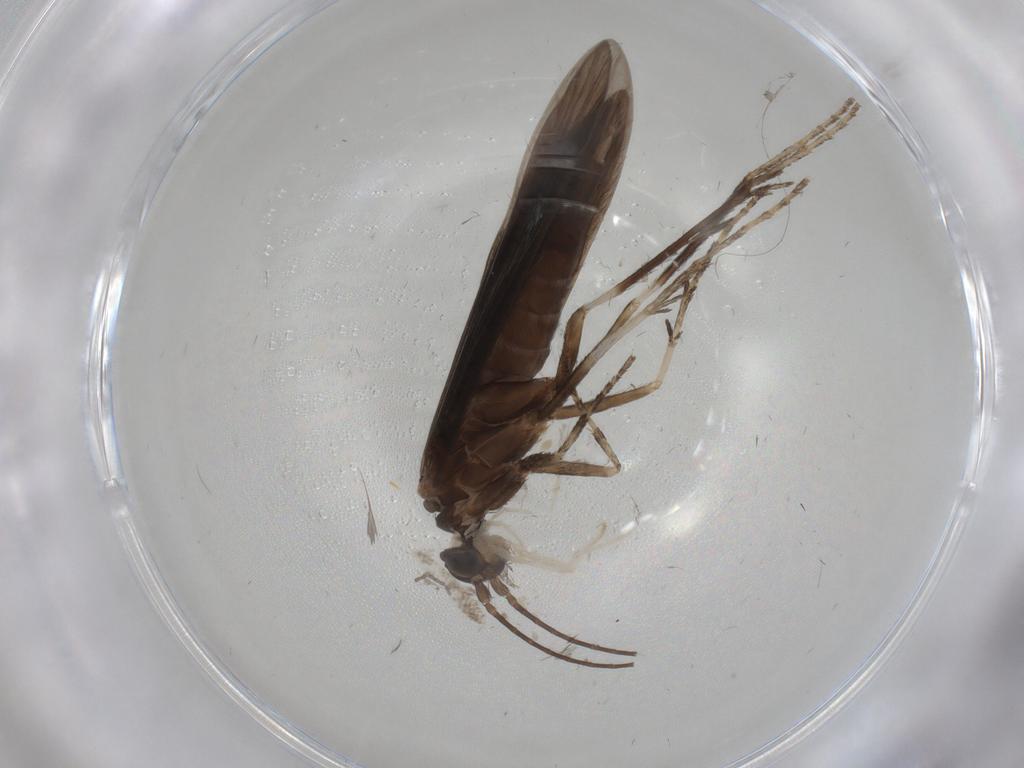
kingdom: Animalia
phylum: Arthropoda
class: Insecta
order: Trichoptera
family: Xiphocentronidae
